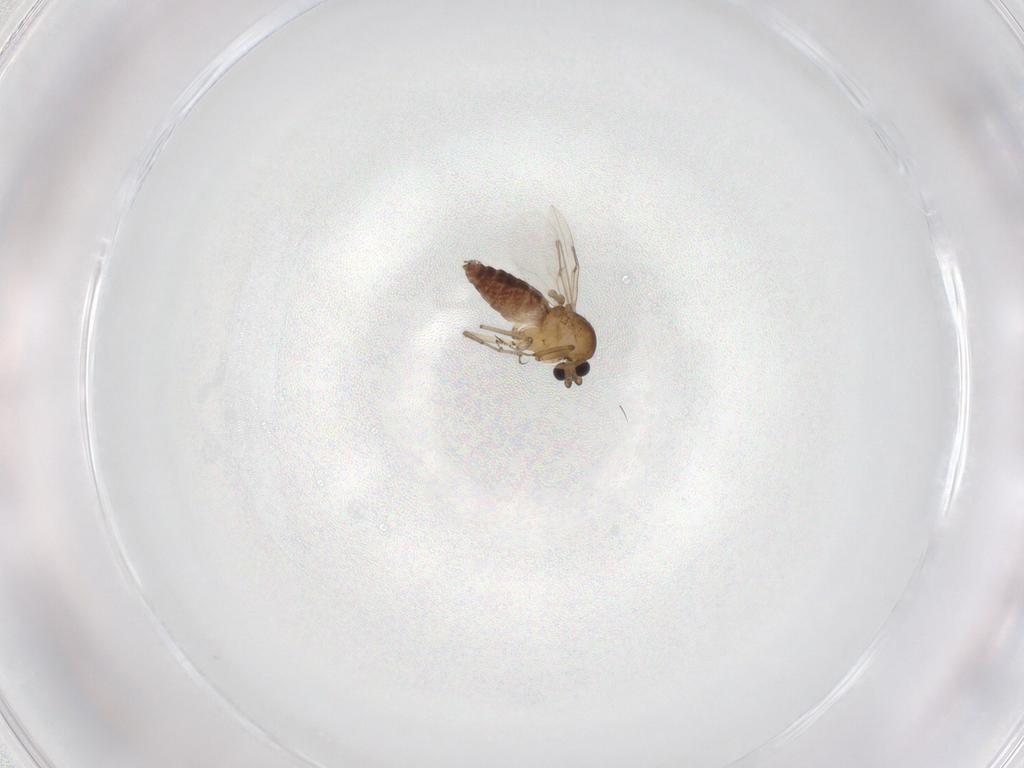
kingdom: Animalia
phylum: Arthropoda
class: Insecta
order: Diptera
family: Ceratopogonidae
